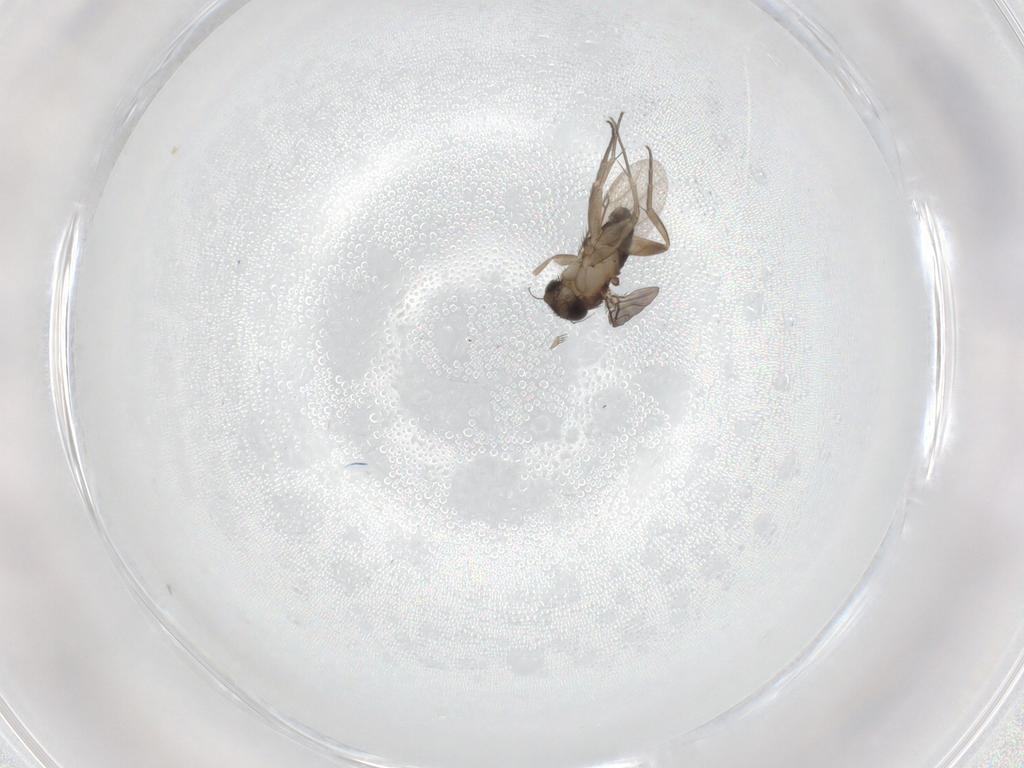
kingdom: Animalia
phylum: Arthropoda
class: Insecta
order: Diptera
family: Phoridae
